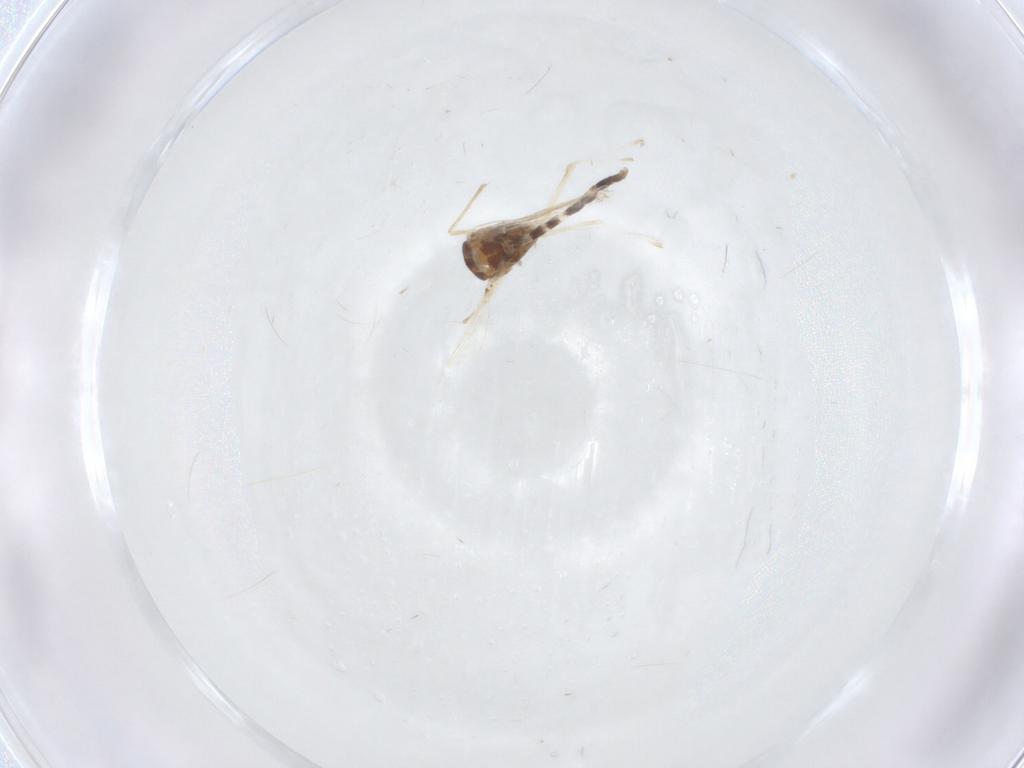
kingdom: Animalia
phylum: Arthropoda
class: Insecta
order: Diptera
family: Chironomidae
